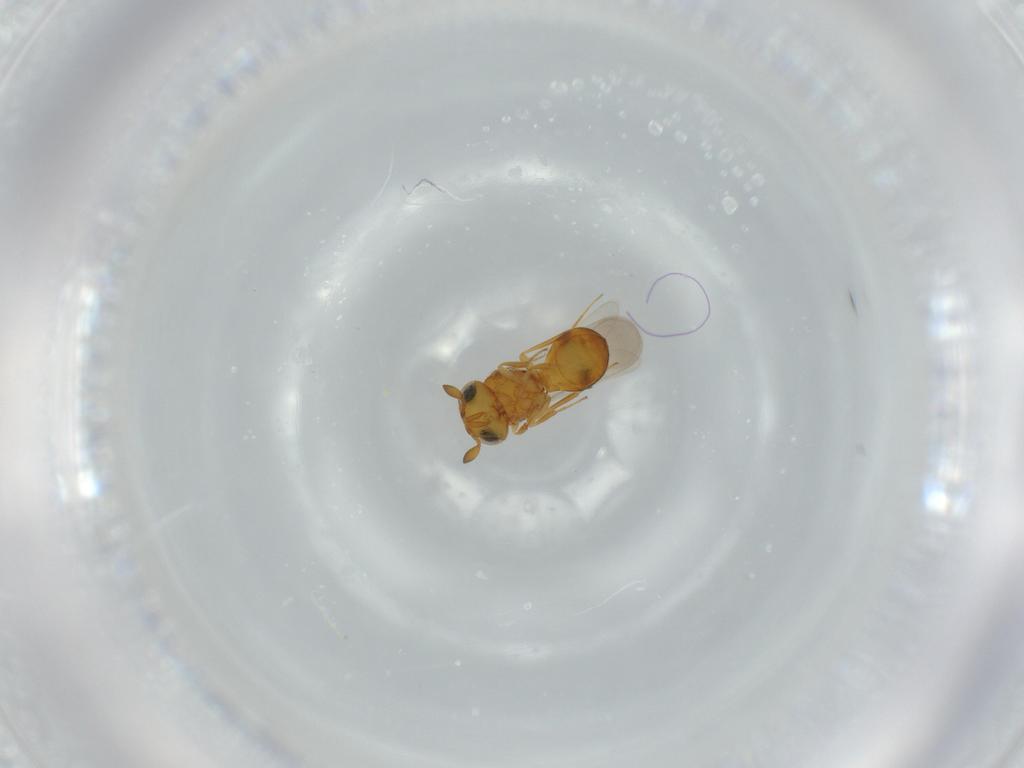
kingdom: Animalia
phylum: Arthropoda
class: Insecta
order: Hymenoptera
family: Scelionidae
